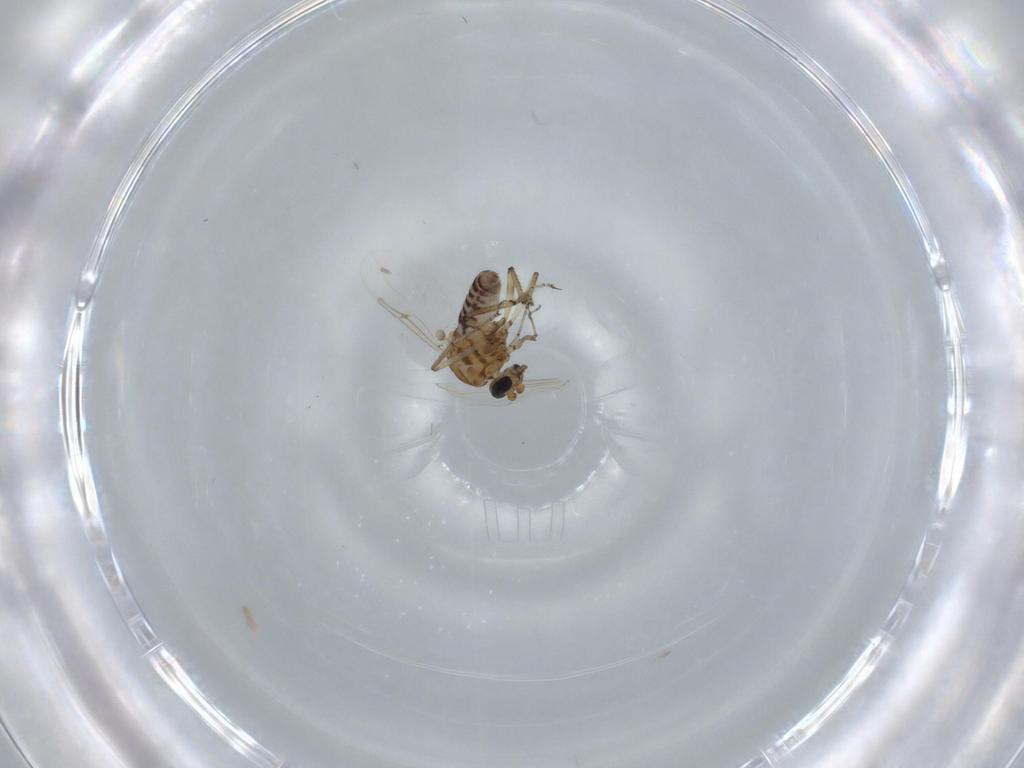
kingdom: Animalia
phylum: Arthropoda
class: Insecta
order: Diptera
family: Ceratopogonidae
